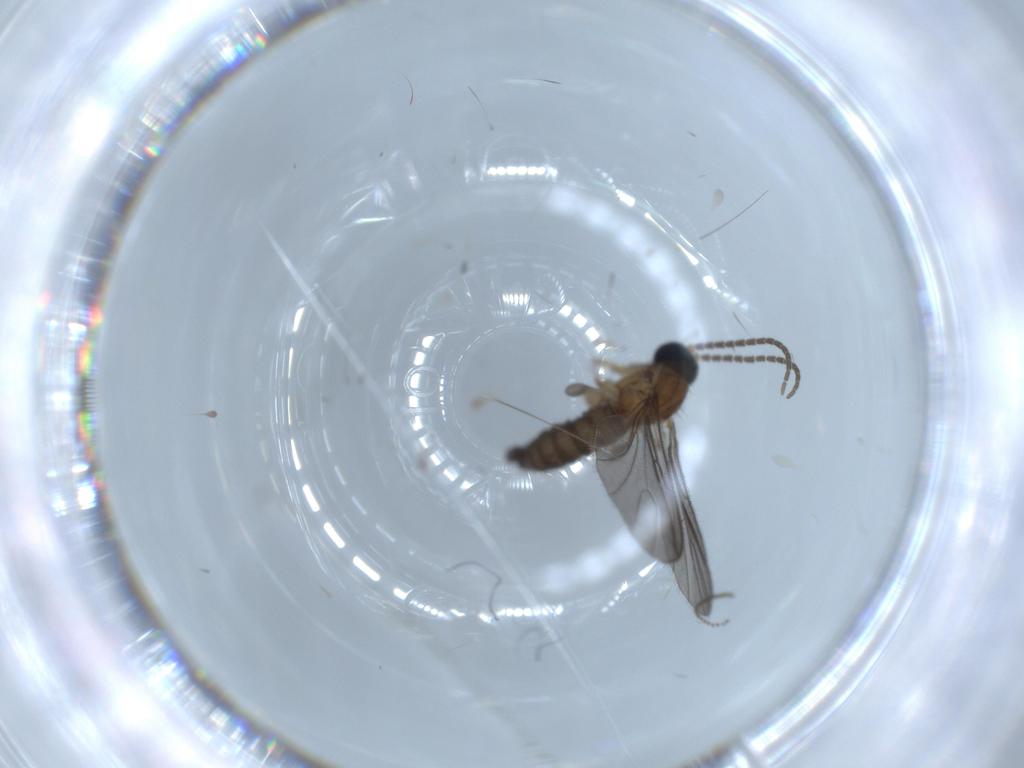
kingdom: Animalia
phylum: Arthropoda
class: Insecta
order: Diptera
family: Sciaridae
